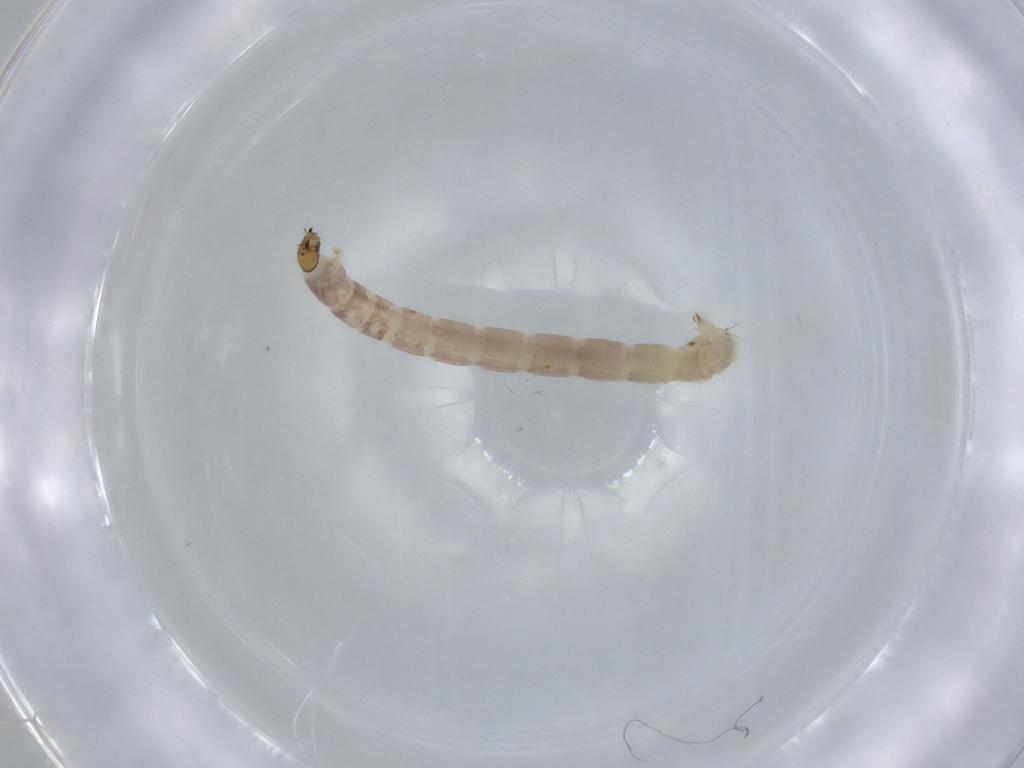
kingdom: Animalia
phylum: Arthropoda
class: Insecta
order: Diptera
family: Chironomidae
